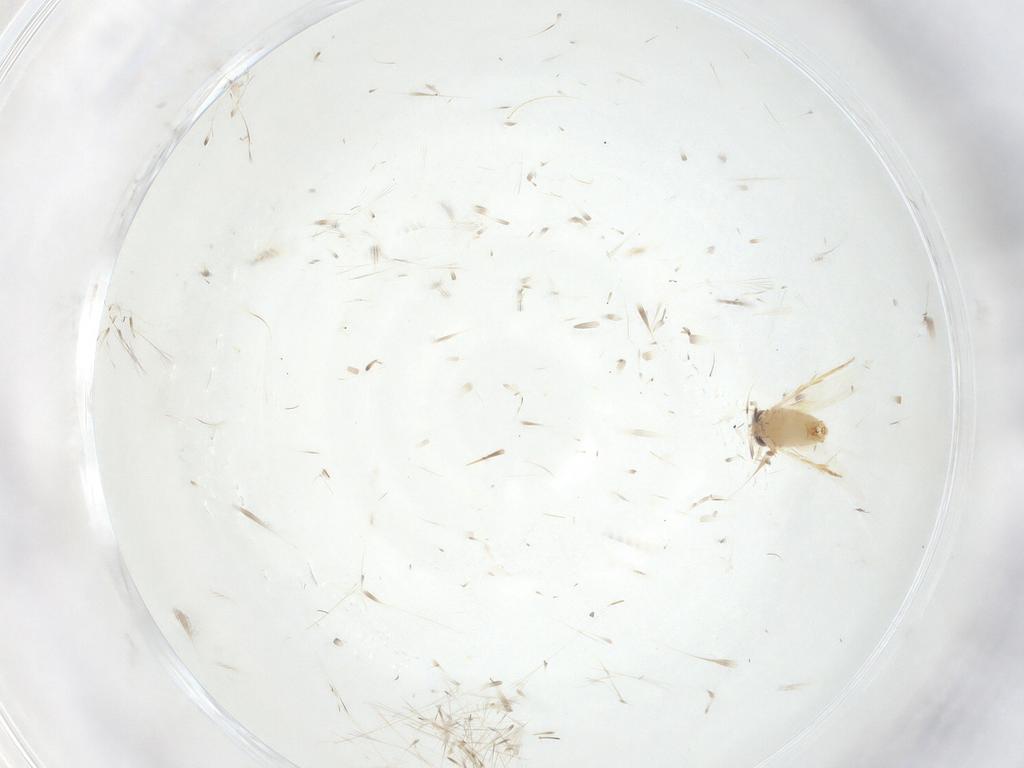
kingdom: Animalia
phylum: Arthropoda
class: Insecta
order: Lepidoptera
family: Crambidae
